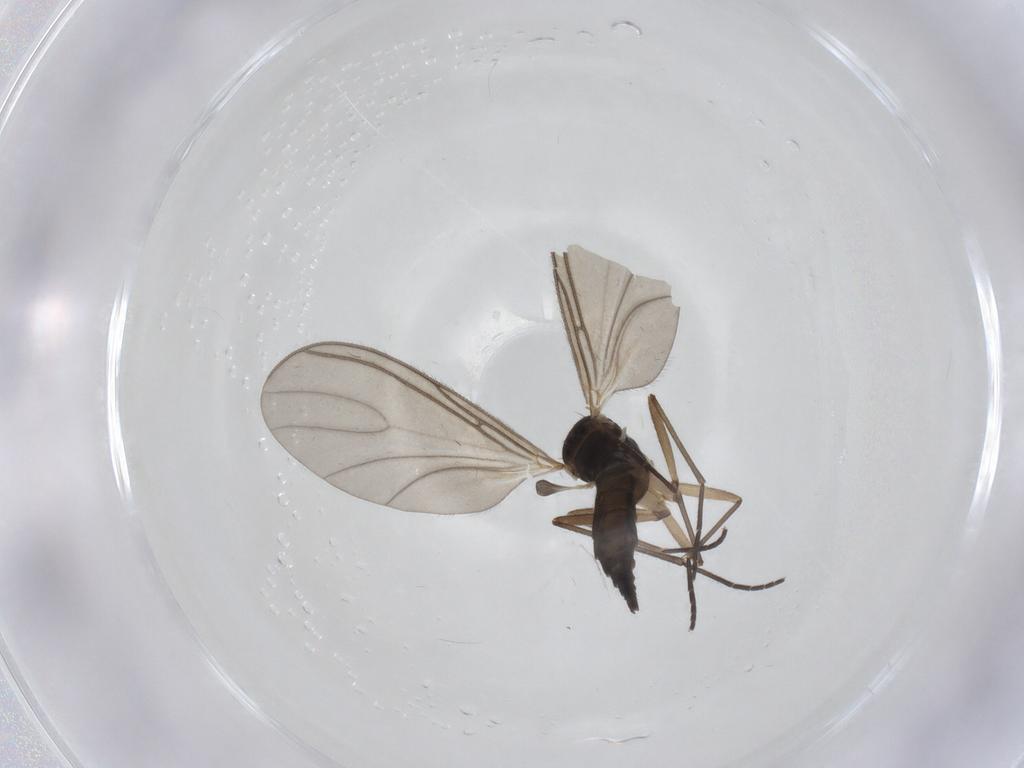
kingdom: Animalia
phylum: Arthropoda
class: Insecta
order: Diptera
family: Sciaridae
